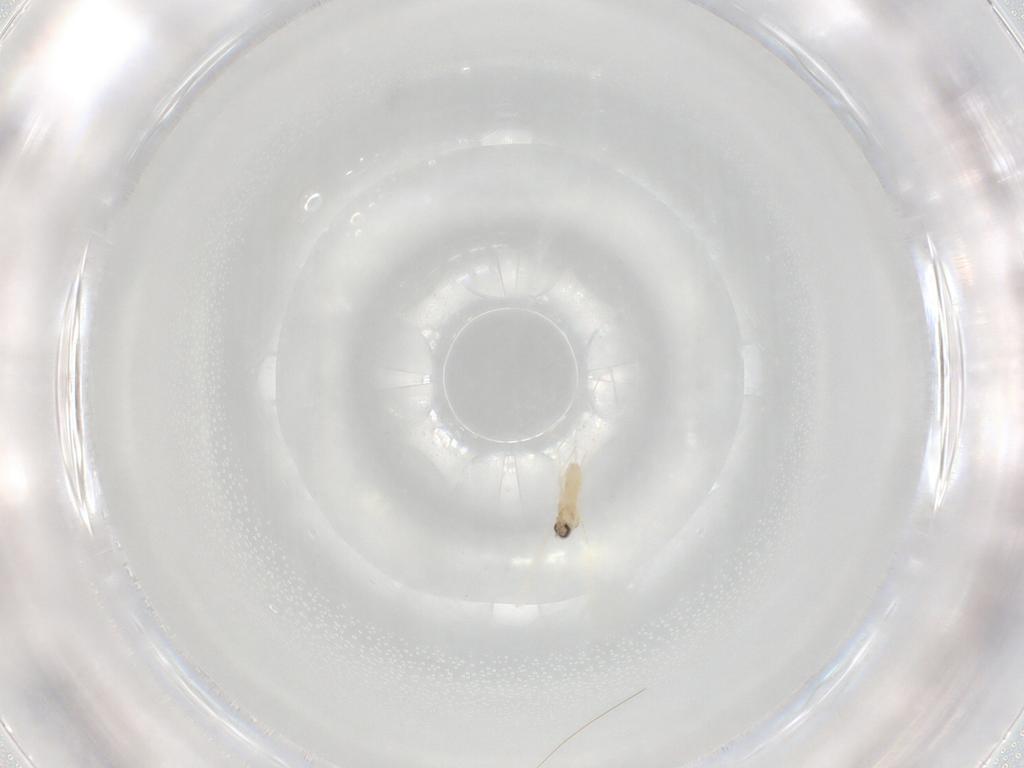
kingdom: Animalia
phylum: Arthropoda
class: Insecta
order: Diptera
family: Cecidomyiidae
